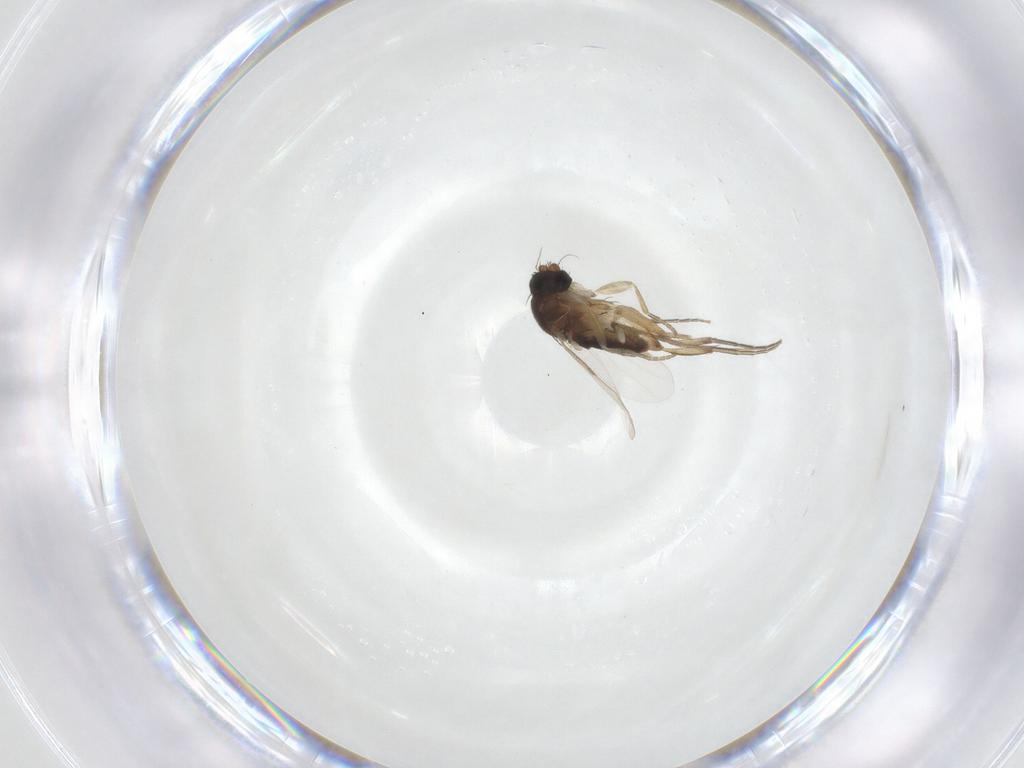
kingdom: Animalia
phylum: Arthropoda
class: Insecta
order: Diptera
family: Phoridae
